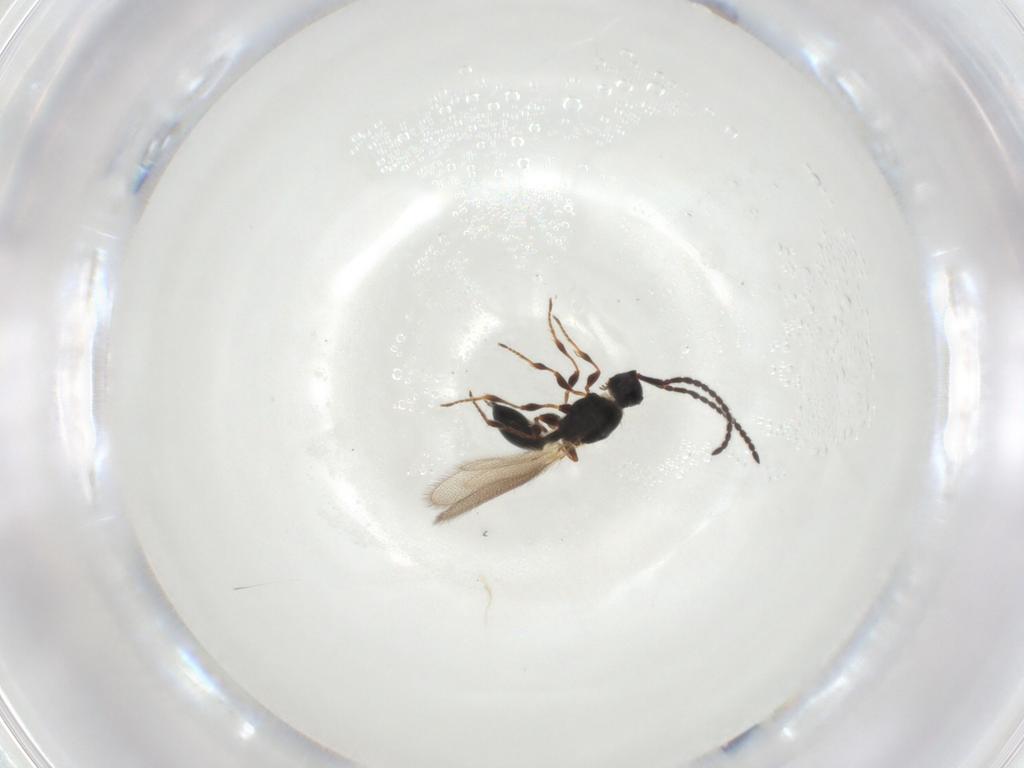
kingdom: Animalia
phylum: Arthropoda
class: Insecta
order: Hymenoptera
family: Diapriidae
